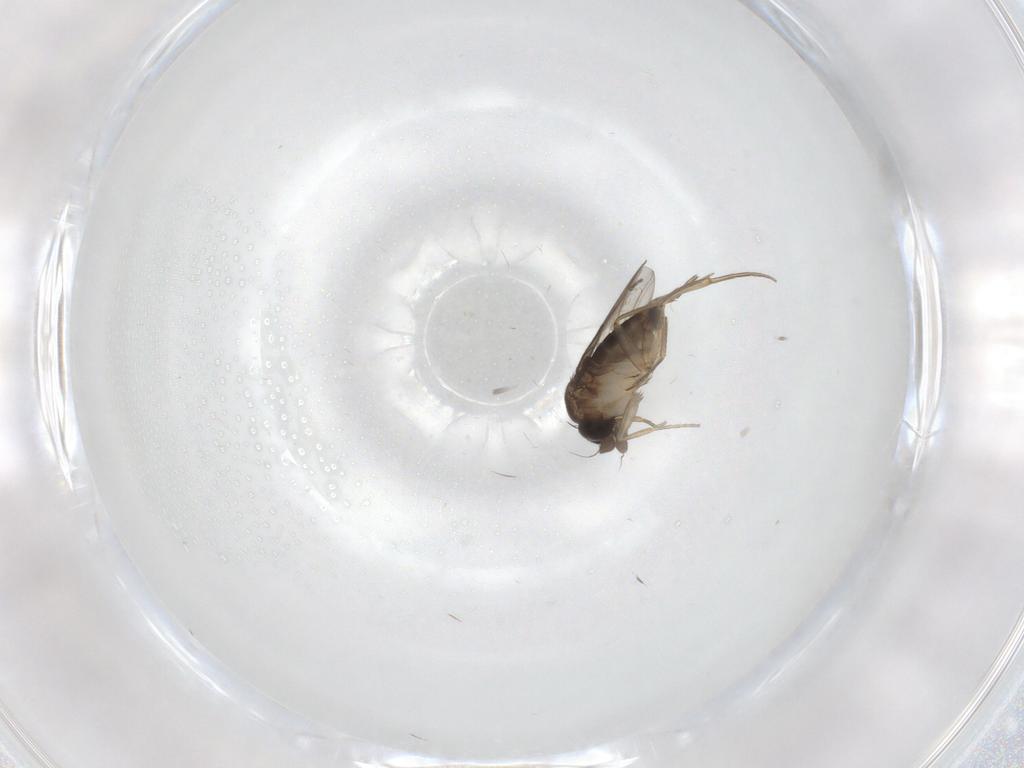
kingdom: Animalia
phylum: Arthropoda
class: Insecta
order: Diptera
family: Phoridae
